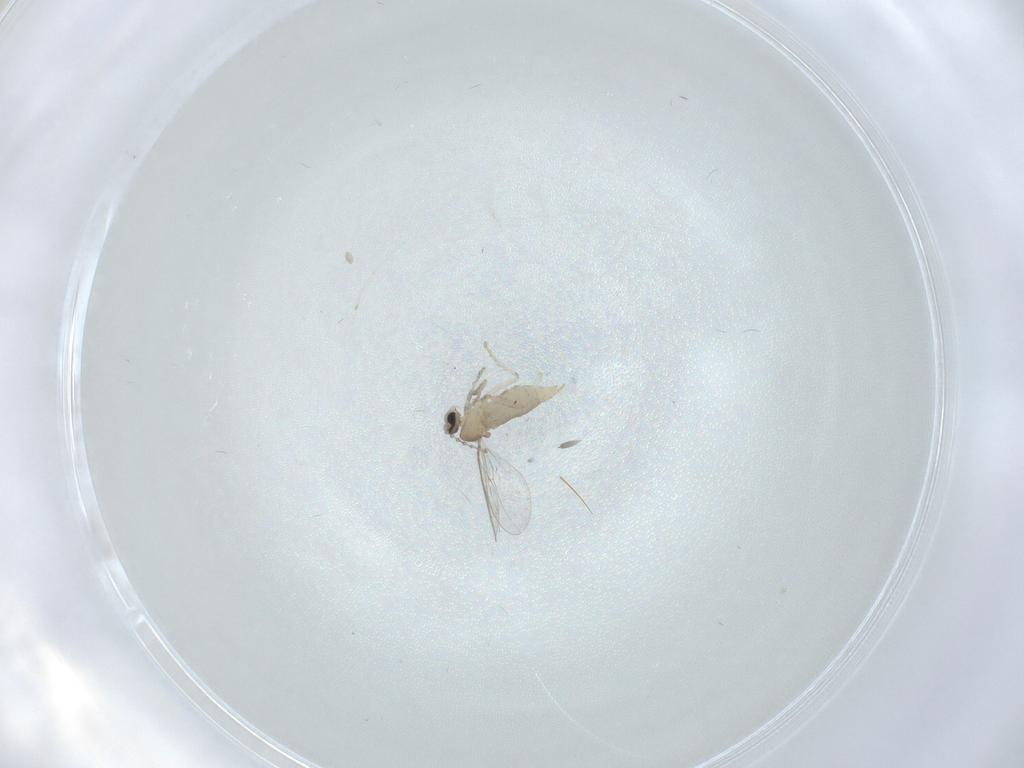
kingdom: Animalia
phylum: Arthropoda
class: Insecta
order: Diptera
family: Cecidomyiidae
